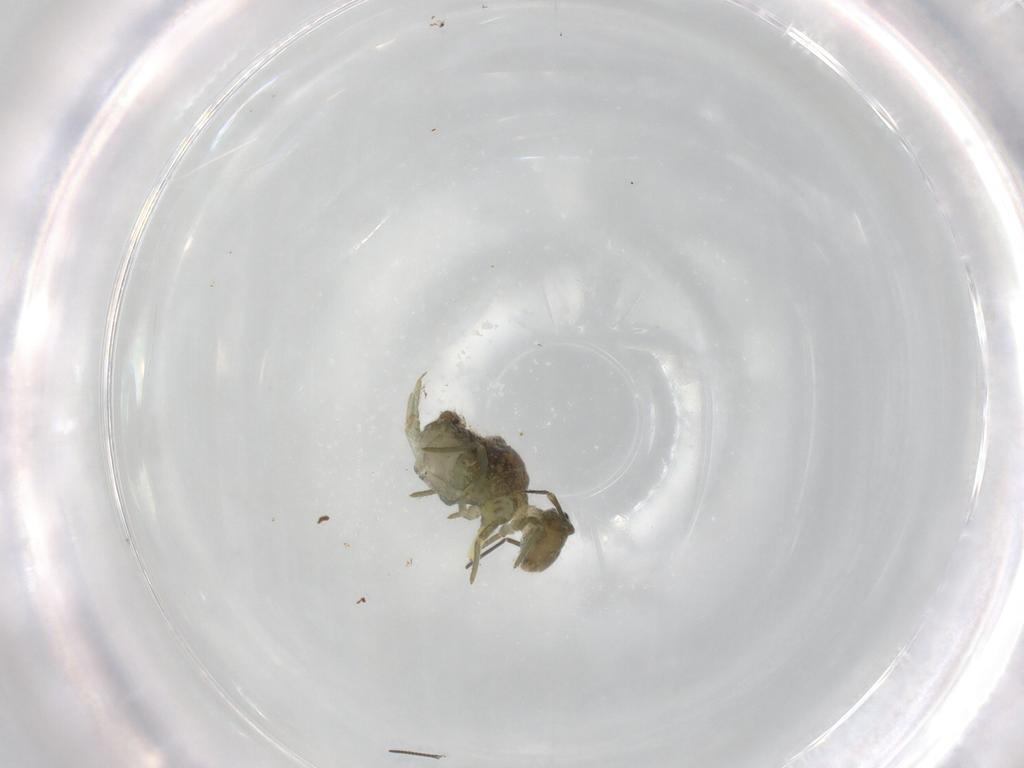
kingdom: Animalia
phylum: Arthropoda
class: Collembola
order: Symphypleona
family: Sminthuridae
